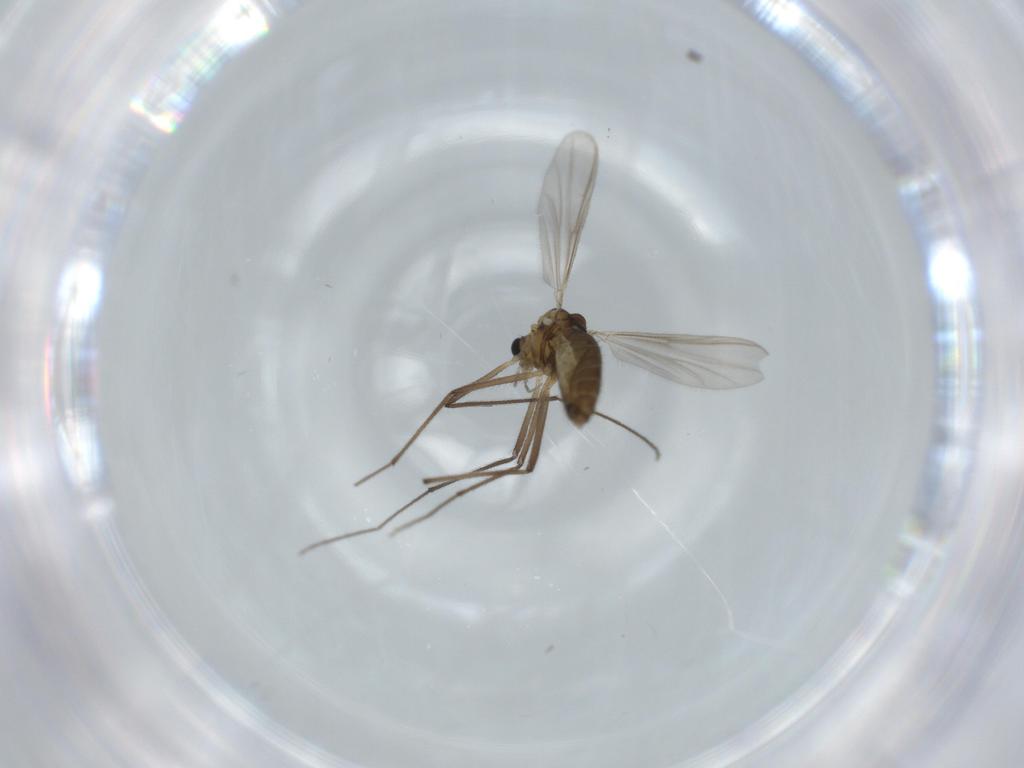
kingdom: Animalia
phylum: Arthropoda
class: Insecta
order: Diptera
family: Chironomidae
